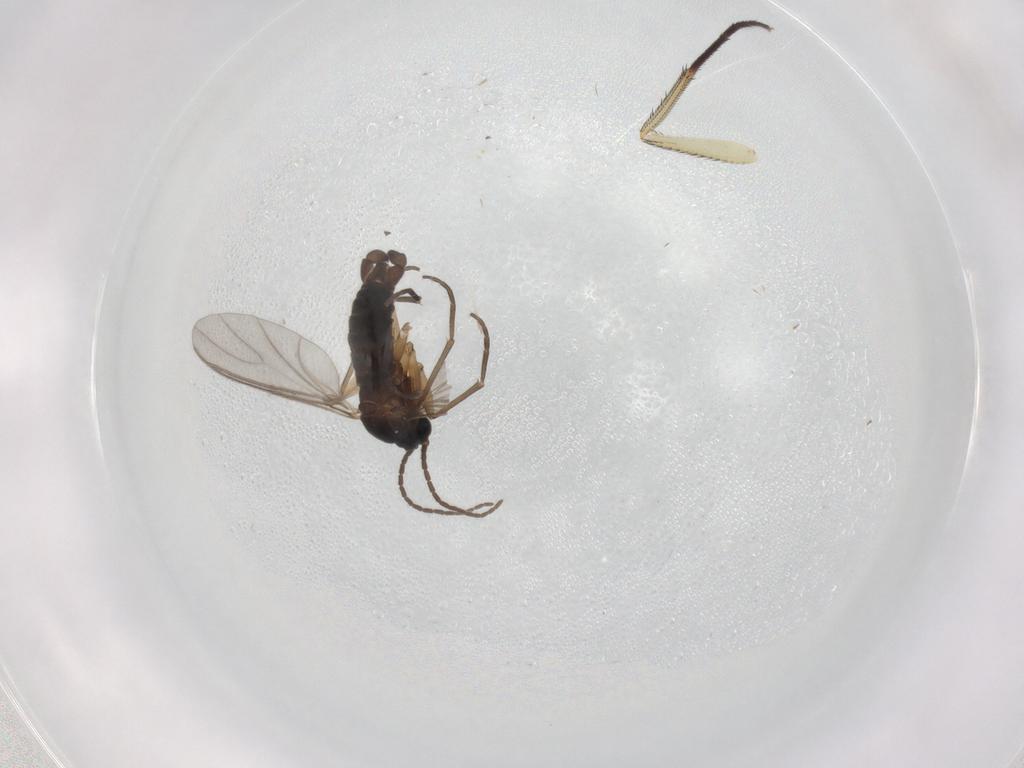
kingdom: Animalia
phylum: Arthropoda
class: Insecta
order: Diptera
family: Sciaridae
